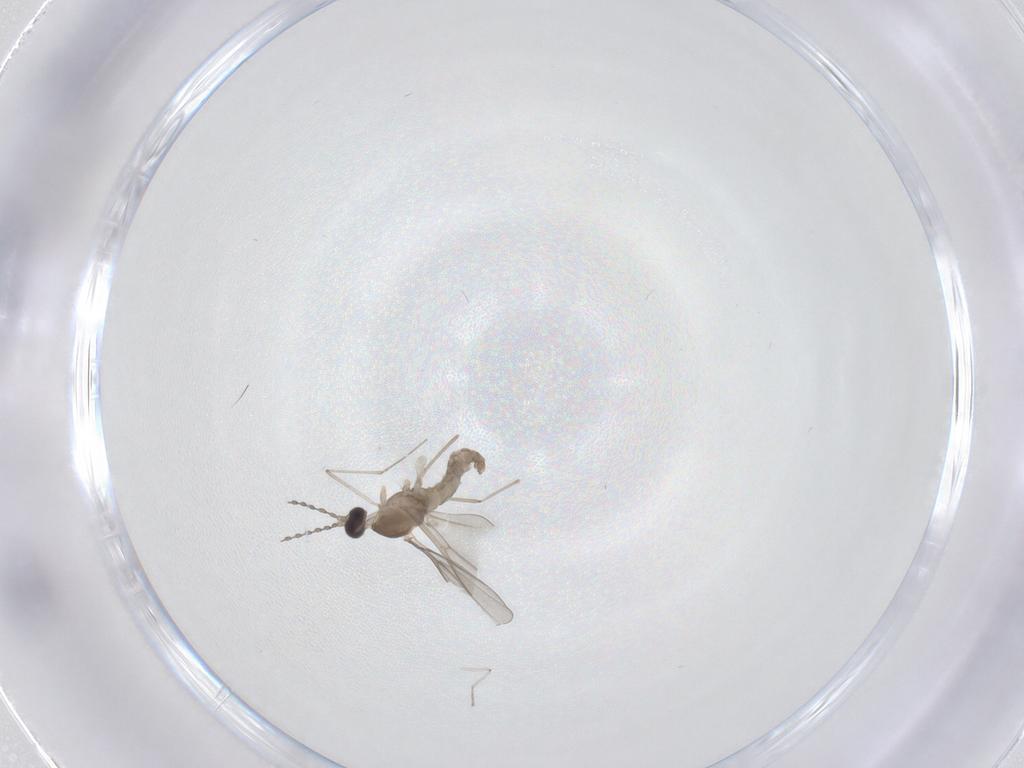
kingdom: Animalia
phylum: Arthropoda
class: Insecta
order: Diptera
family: Cecidomyiidae
